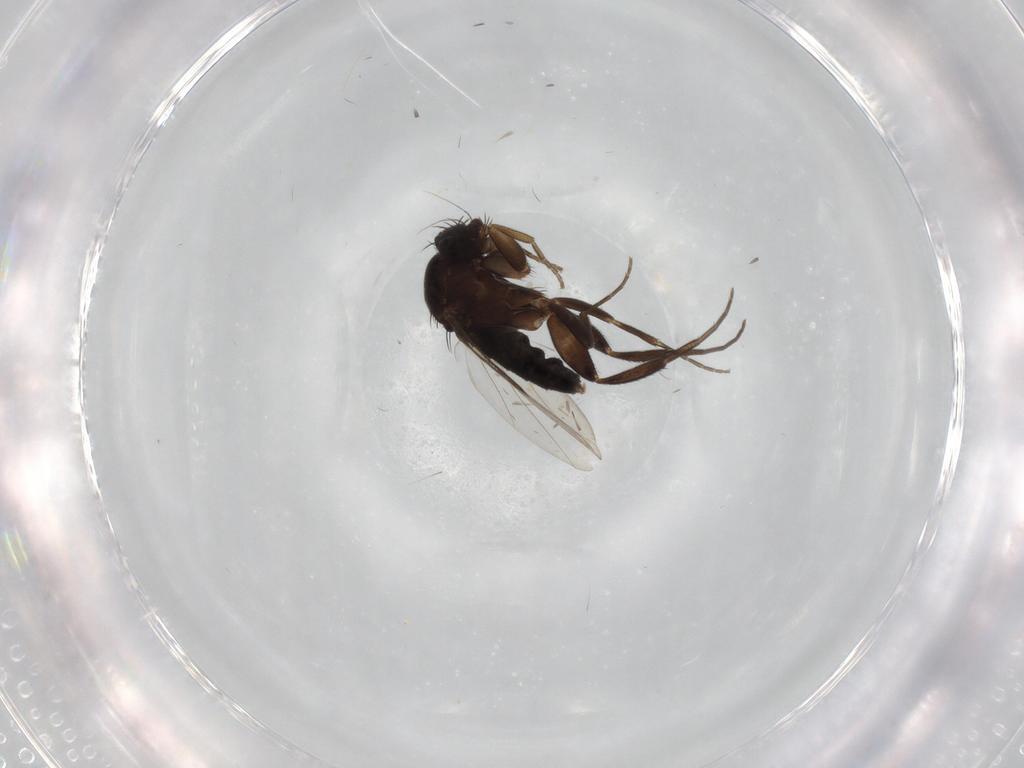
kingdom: Animalia
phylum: Arthropoda
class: Insecta
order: Diptera
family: Phoridae
